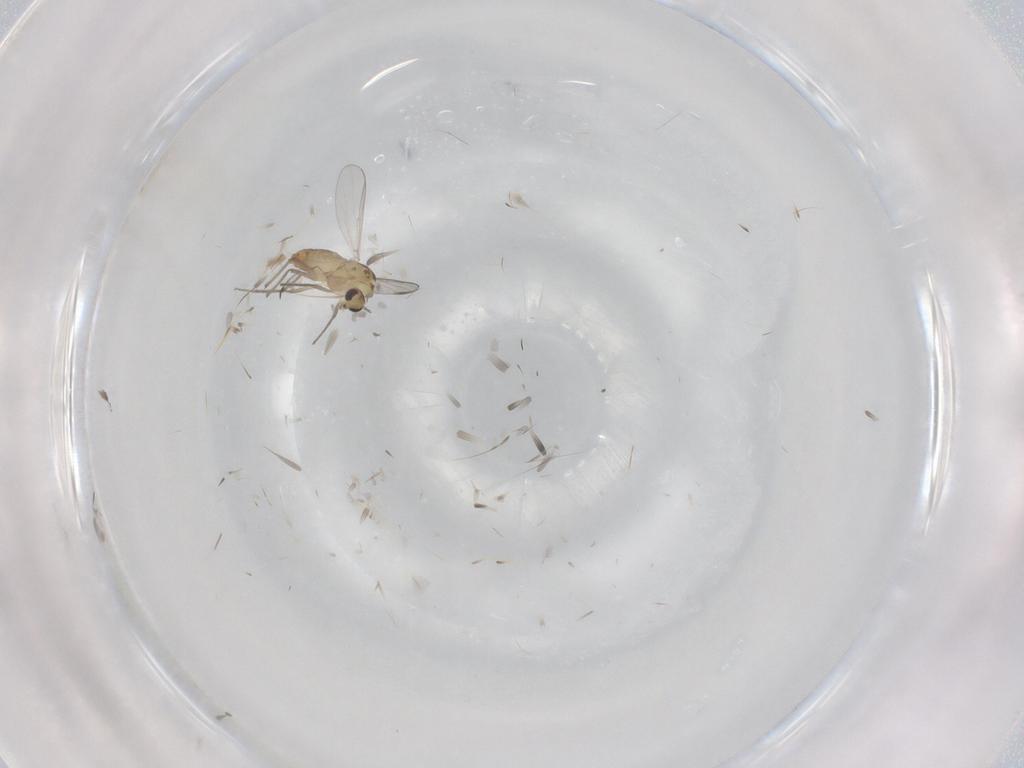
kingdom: Animalia
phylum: Arthropoda
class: Insecta
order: Diptera
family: Chironomidae
